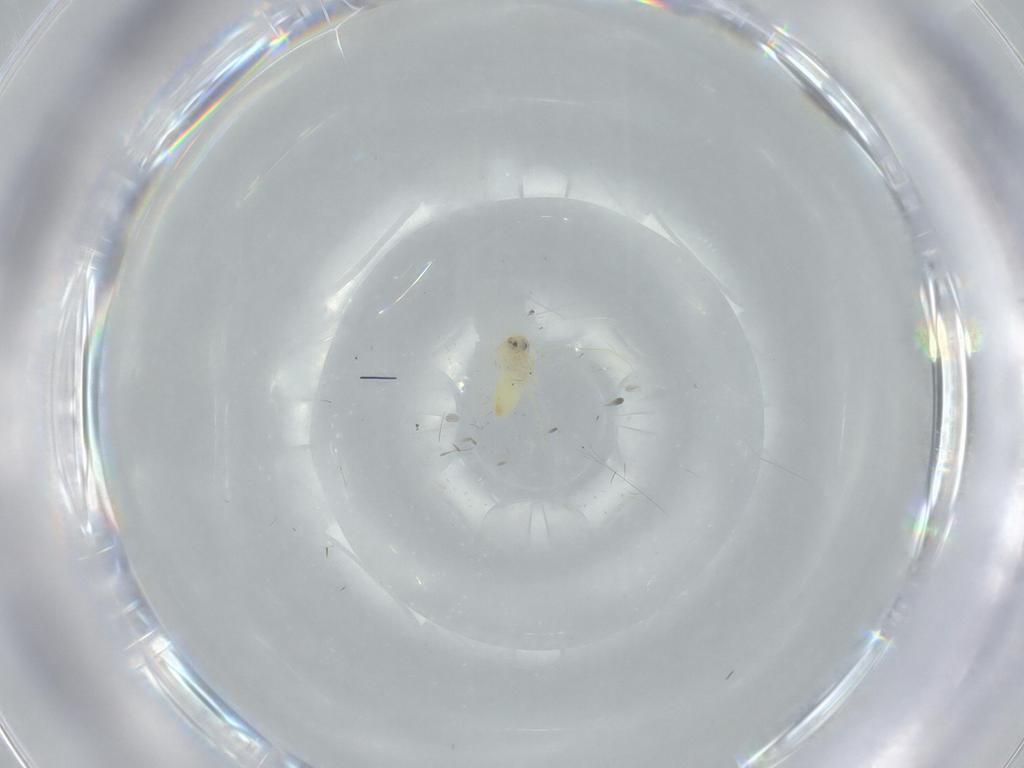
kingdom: Animalia
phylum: Arthropoda
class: Insecta
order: Hemiptera
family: Aleyrodidae
